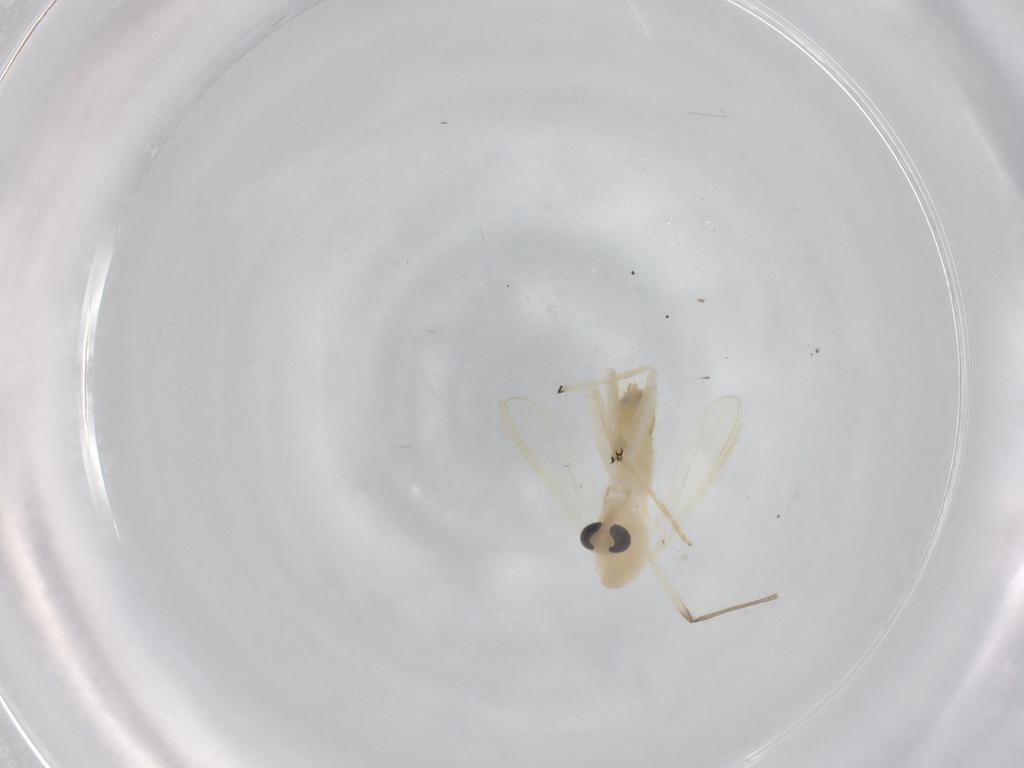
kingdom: Animalia
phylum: Arthropoda
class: Insecta
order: Diptera
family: Chironomidae
